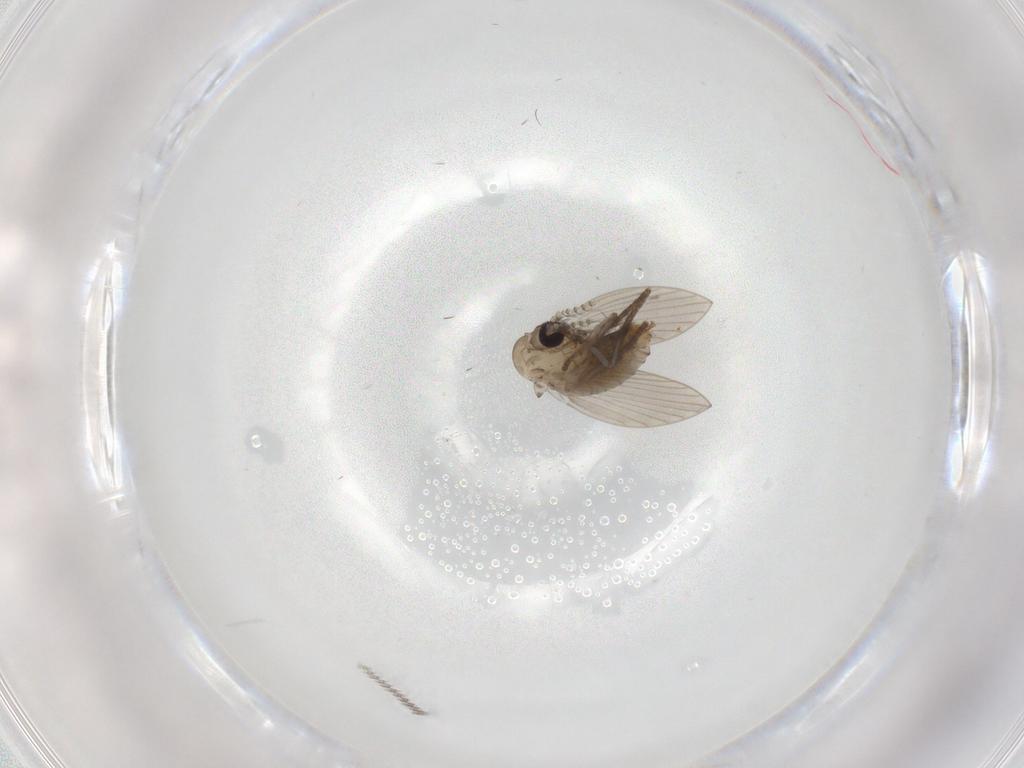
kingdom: Animalia
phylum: Arthropoda
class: Insecta
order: Diptera
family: Psychodidae
